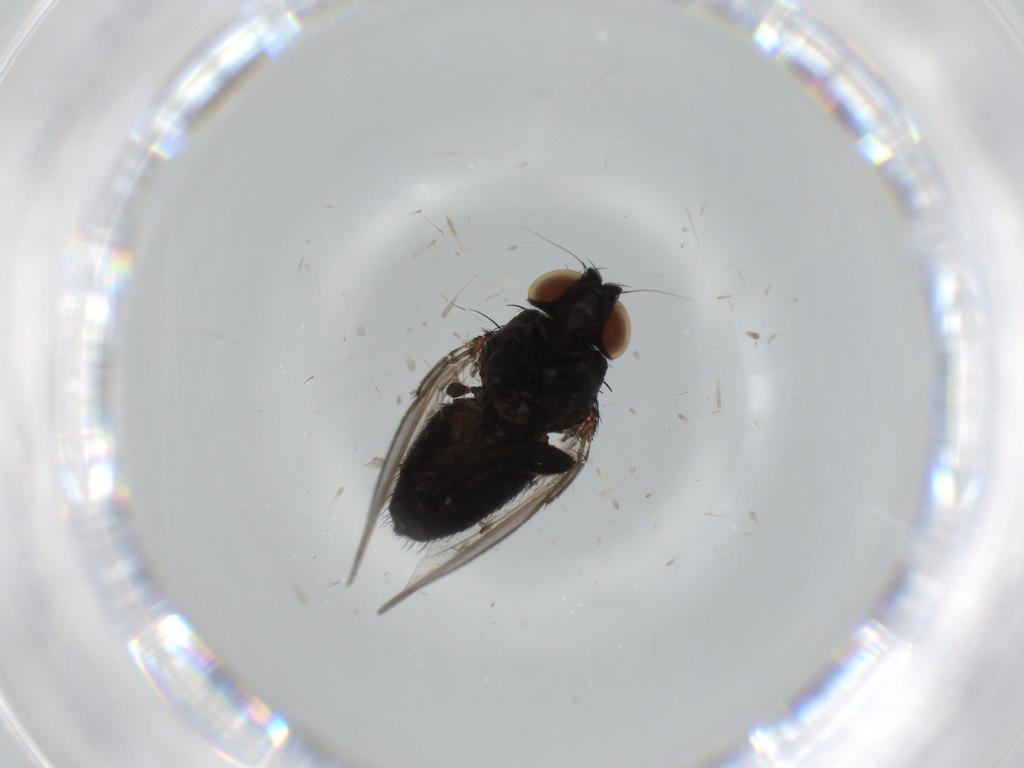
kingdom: Animalia
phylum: Arthropoda
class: Insecta
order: Diptera
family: Milichiidae
